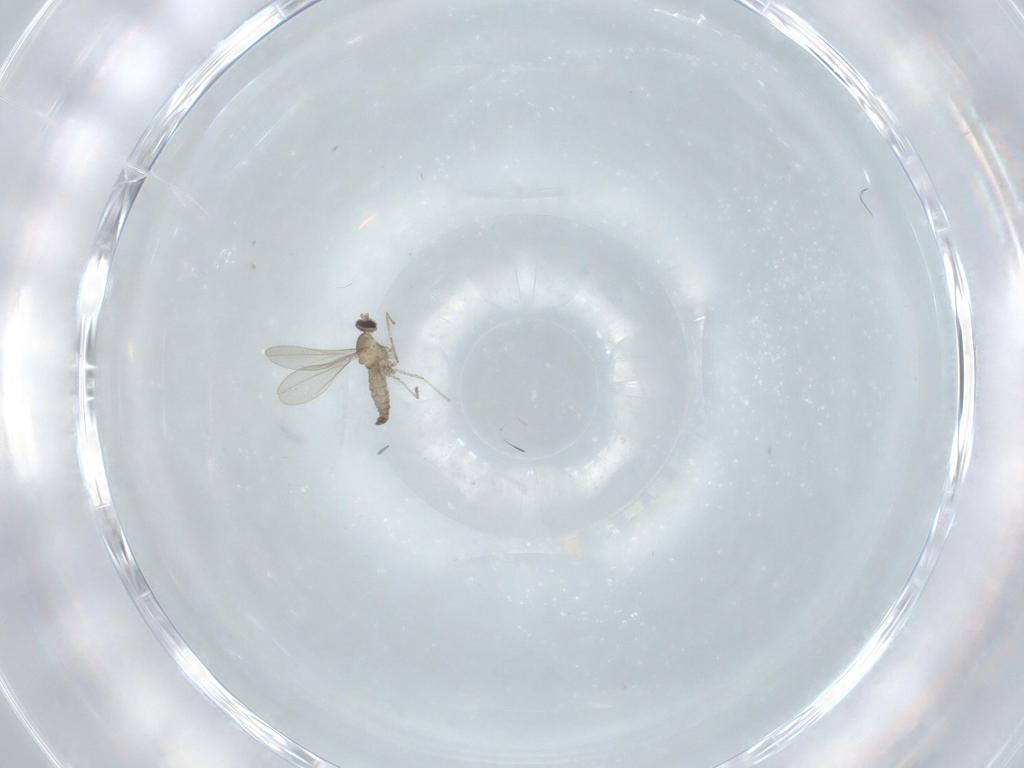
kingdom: Animalia
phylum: Arthropoda
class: Insecta
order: Diptera
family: Cecidomyiidae
